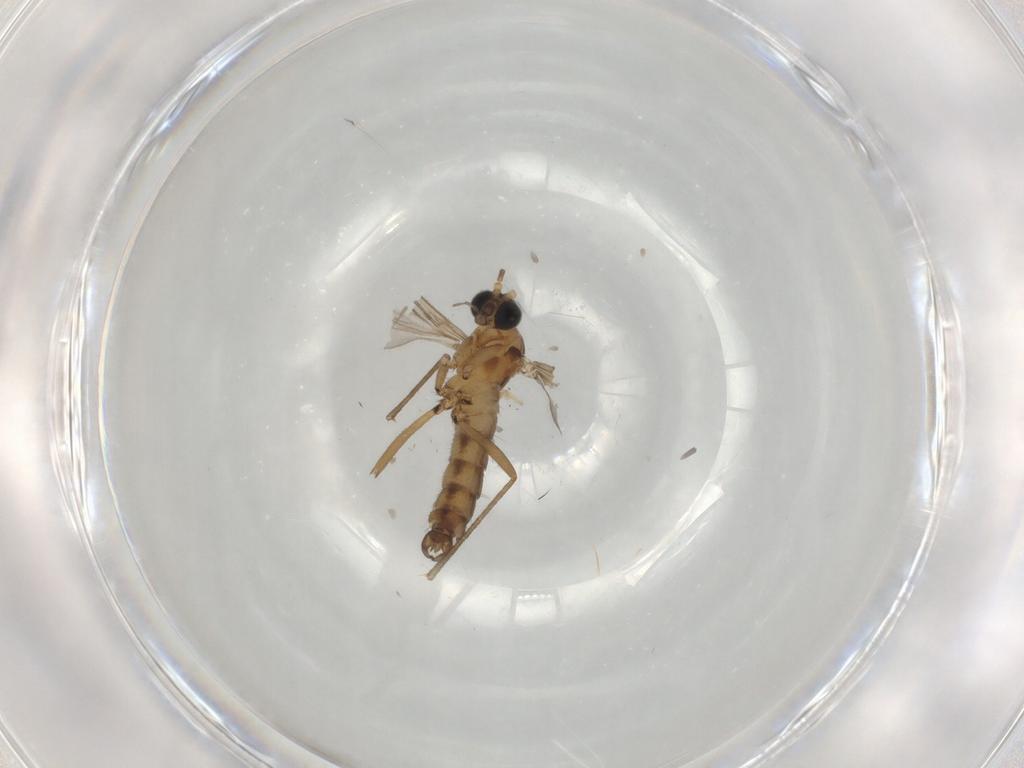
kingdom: Animalia
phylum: Arthropoda
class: Insecta
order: Diptera
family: Sciaridae
